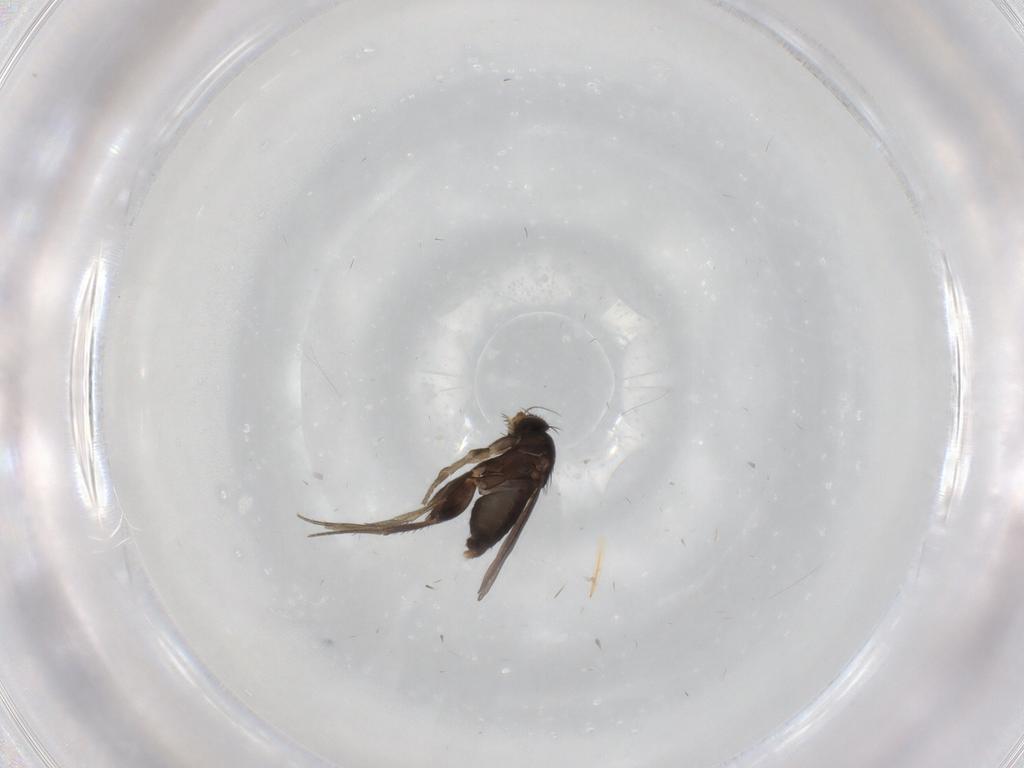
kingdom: Animalia
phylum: Arthropoda
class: Insecta
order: Diptera
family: Phoridae
